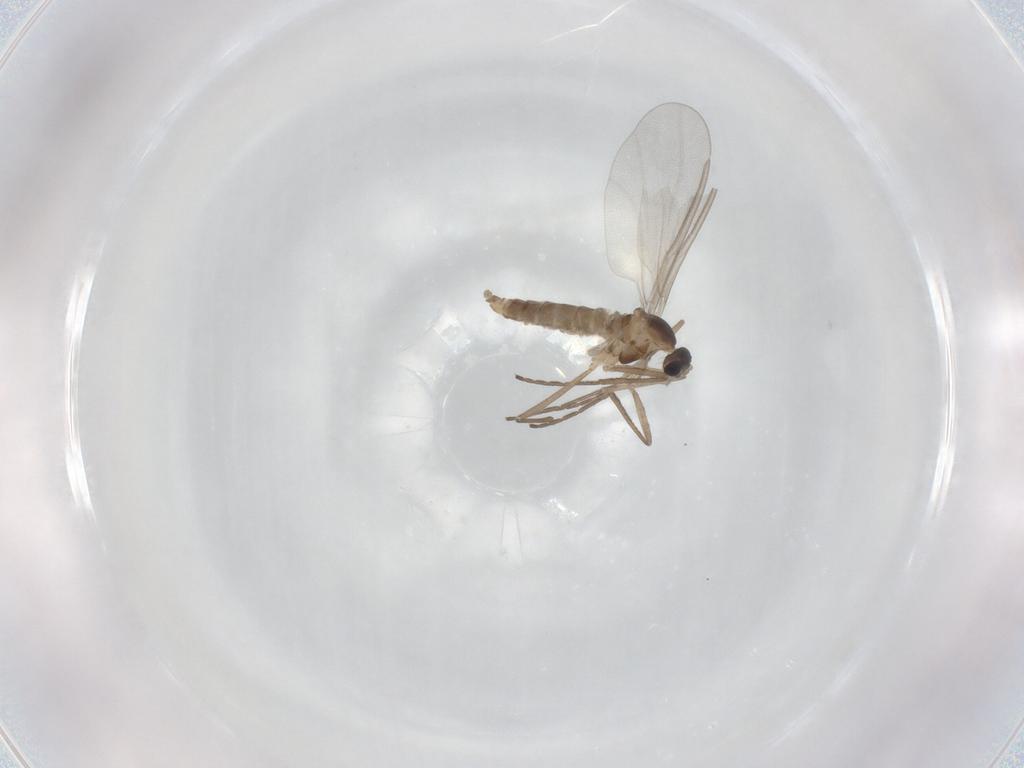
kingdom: Animalia
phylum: Arthropoda
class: Insecta
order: Diptera
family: Cecidomyiidae
